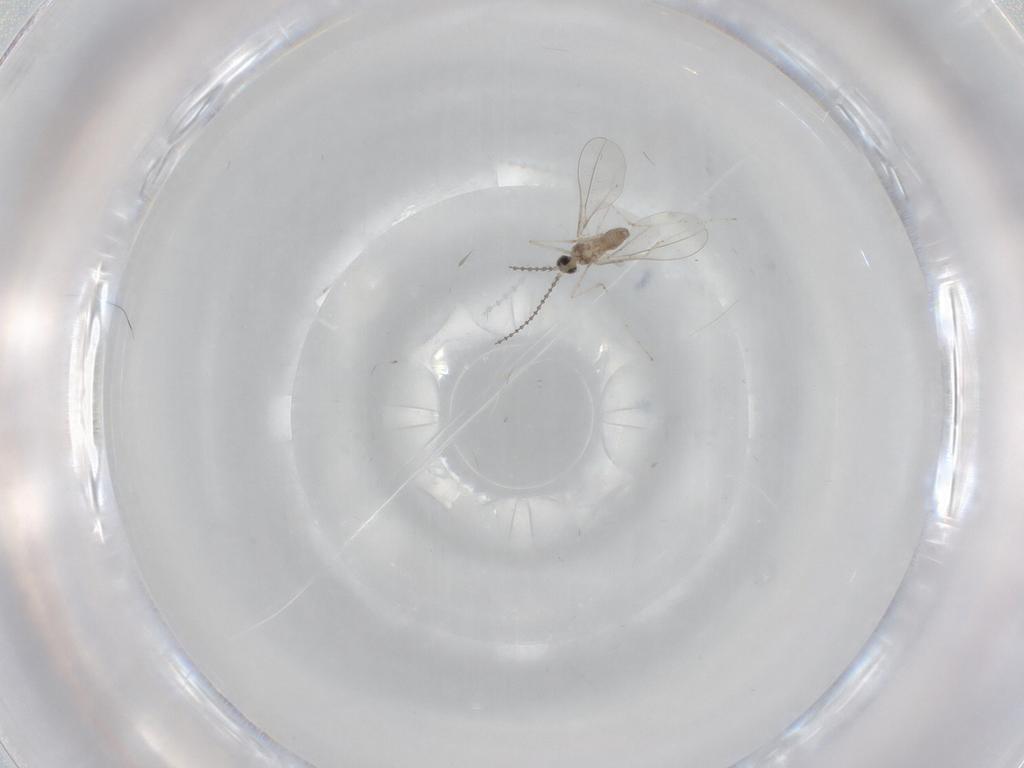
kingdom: Animalia
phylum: Arthropoda
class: Insecta
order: Diptera
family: Cecidomyiidae
